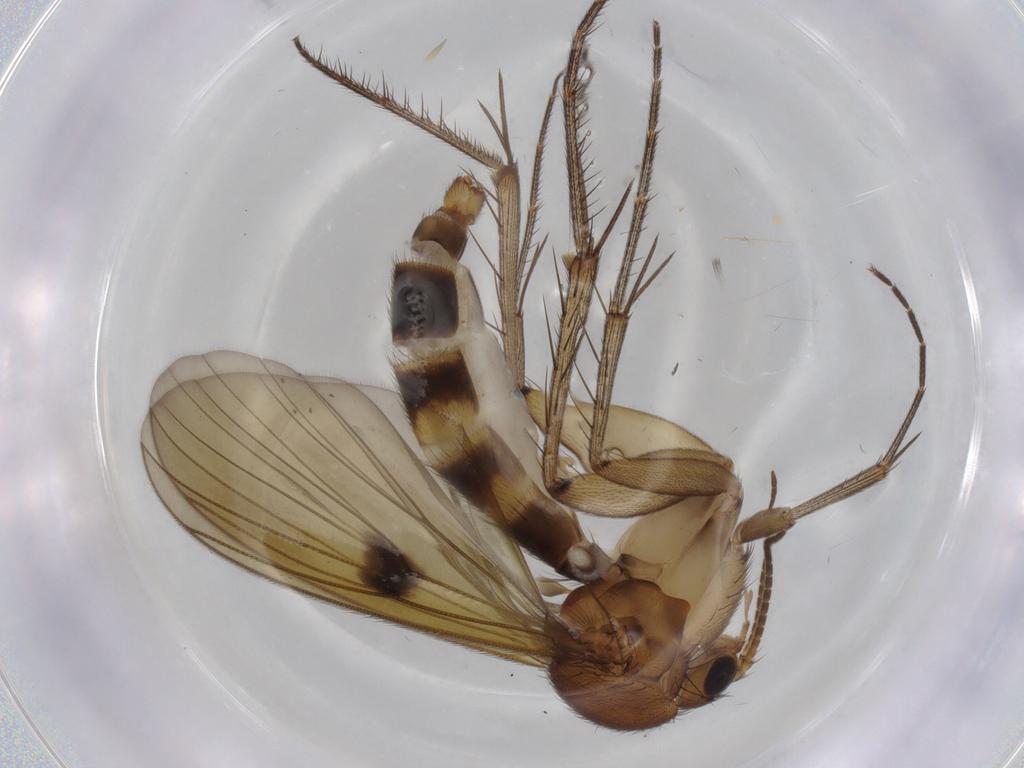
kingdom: Animalia
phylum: Arthropoda
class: Insecta
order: Diptera
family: Phoridae
